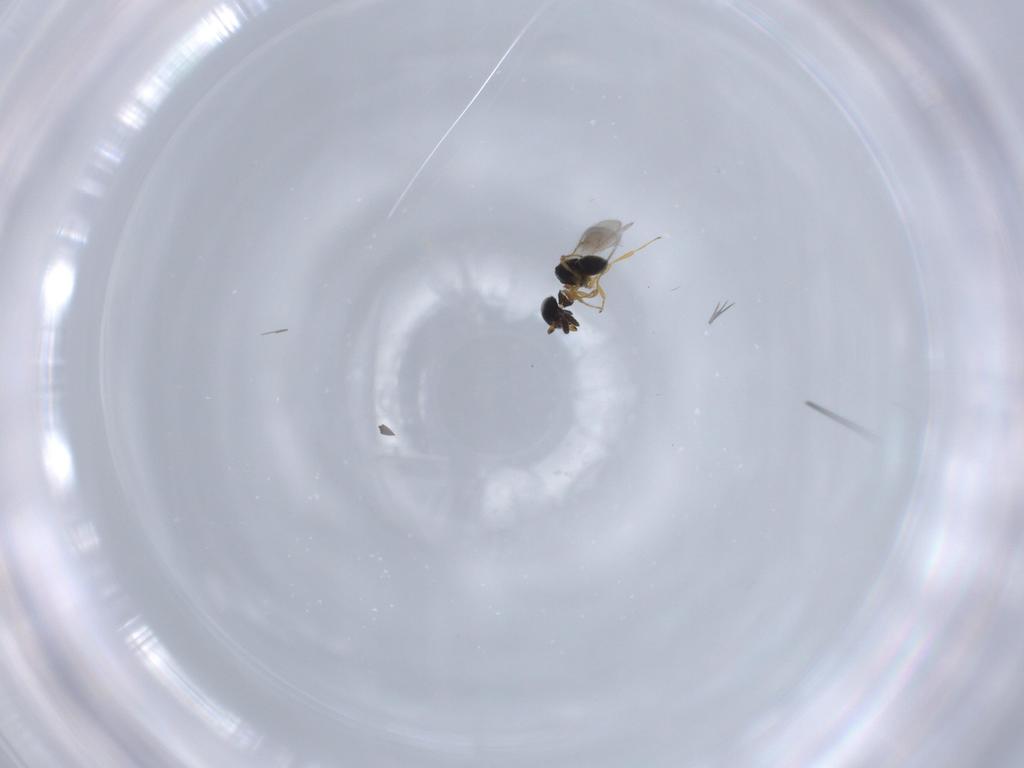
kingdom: Animalia
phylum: Arthropoda
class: Insecta
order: Hymenoptera
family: Scelionidae
